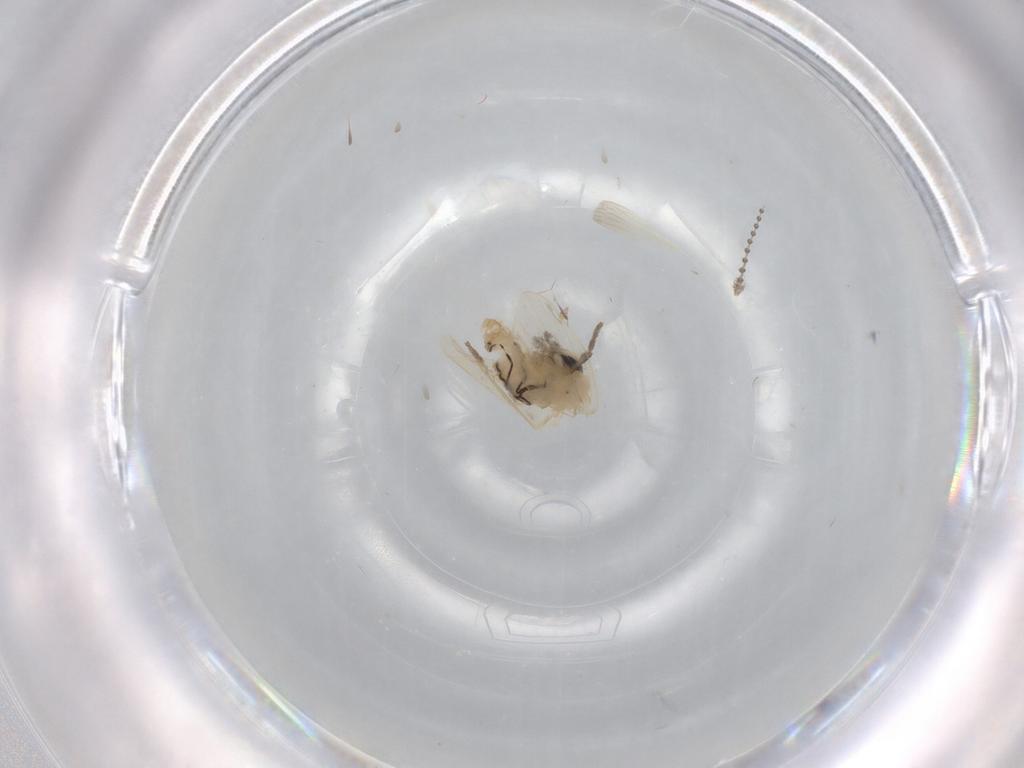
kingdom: Animalia
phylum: Arthropoda
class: Insecta
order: Diptera
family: Psychodidae
